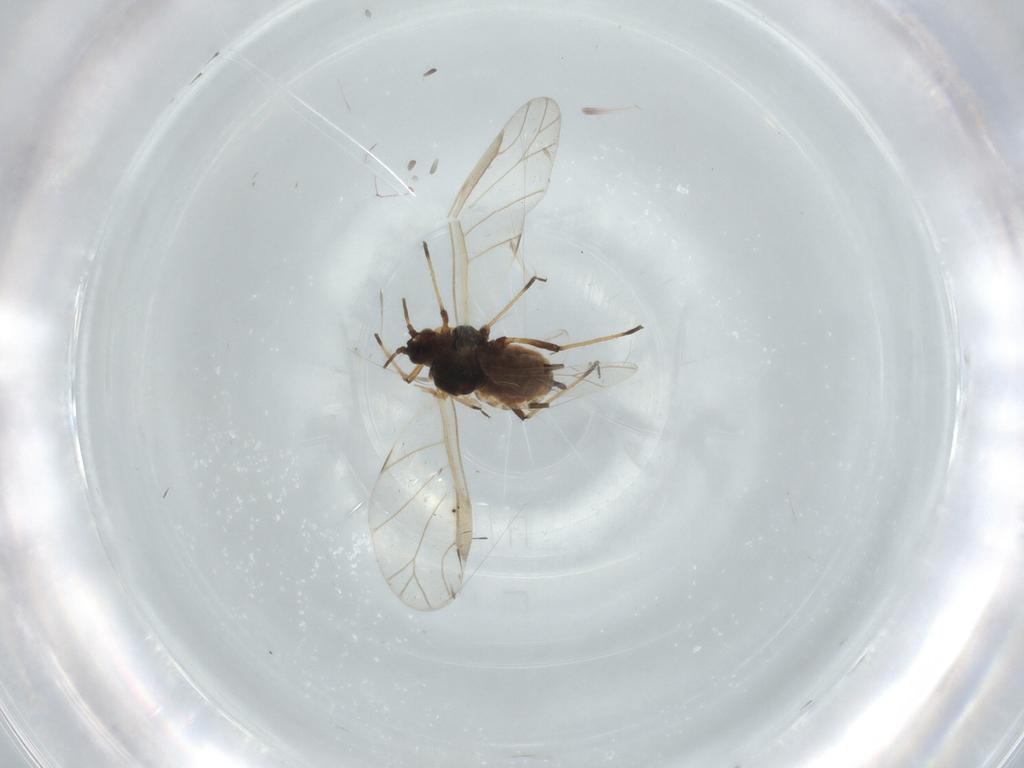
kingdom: Animalia
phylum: Arthropoda
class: Insecta
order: Hemiptera
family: Aphididae
